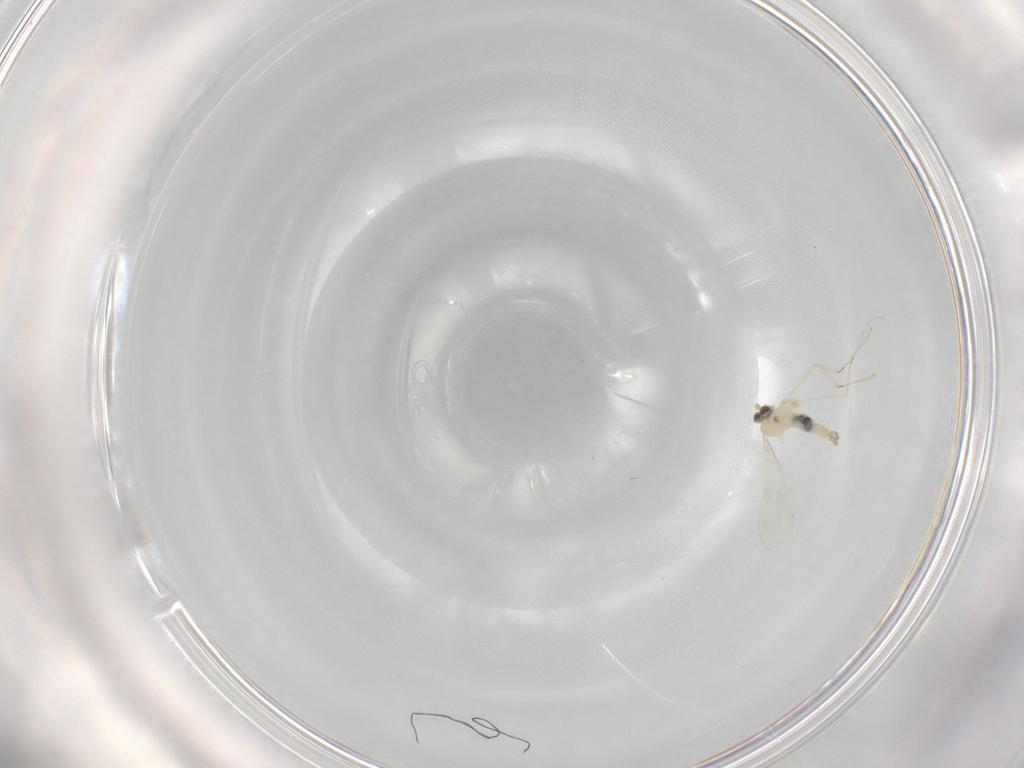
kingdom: Animalia
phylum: Arthropoda
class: Insecta
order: Diptera
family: Cecidomyiidae
